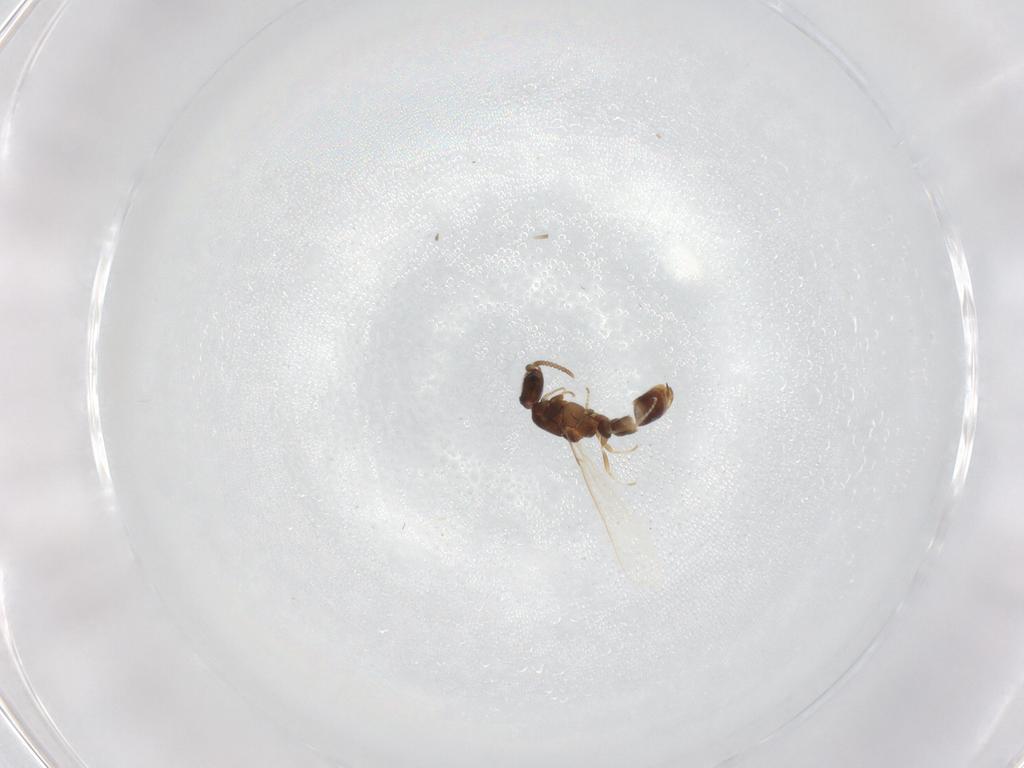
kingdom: Animalia
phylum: Arthropoda
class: Insecta
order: Hymenoptera
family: Formicidae
